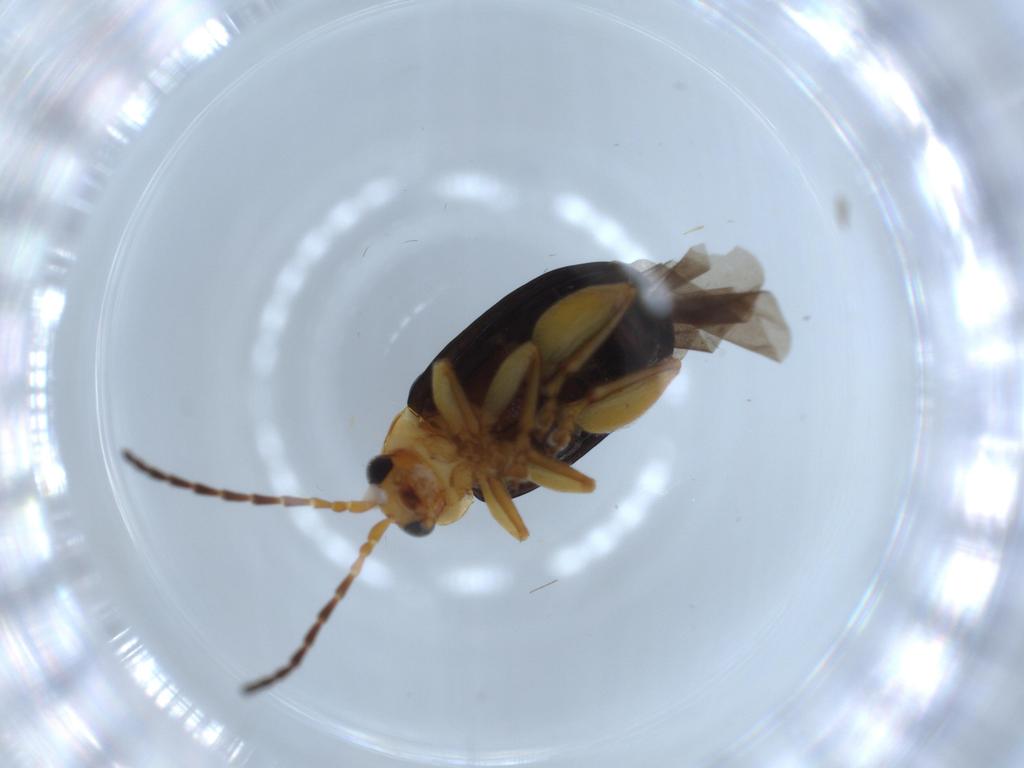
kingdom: Animalia
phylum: Arthropoda
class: Insecta
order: Coleoptera
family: Chrysomelidae
